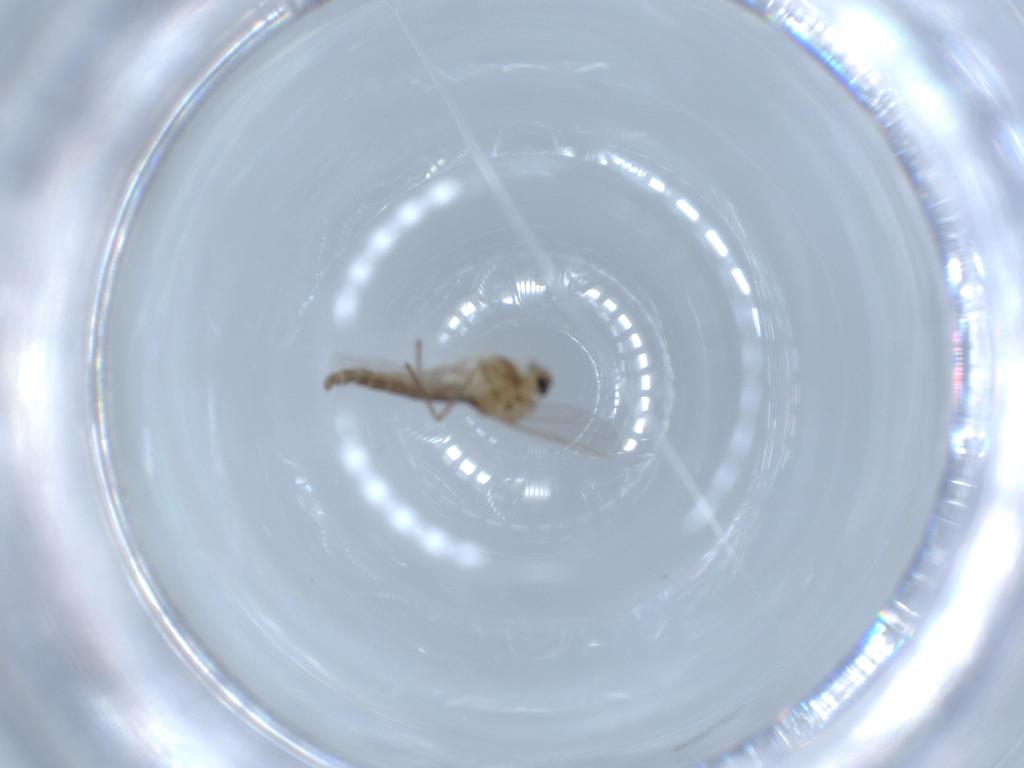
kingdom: Animalia
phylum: Arthropoda
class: Insecta
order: Diptera
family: Chironomidae
